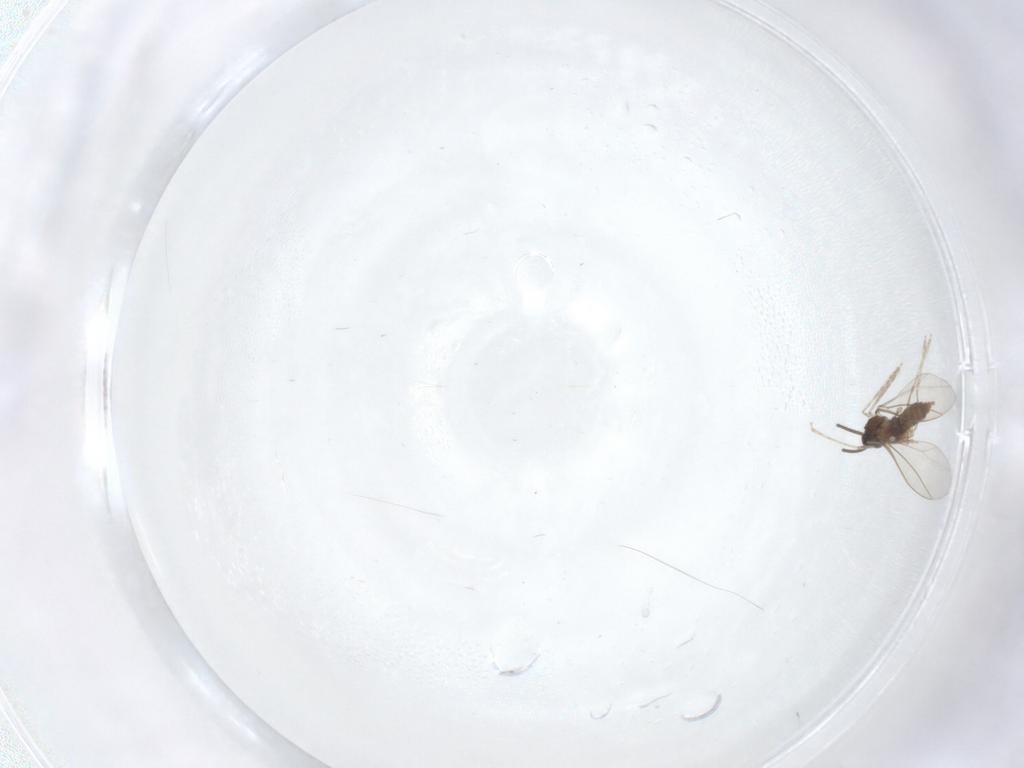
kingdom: Animalia
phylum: Arthropoda
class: Insecta
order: Diptera
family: Cecidomyiidae
